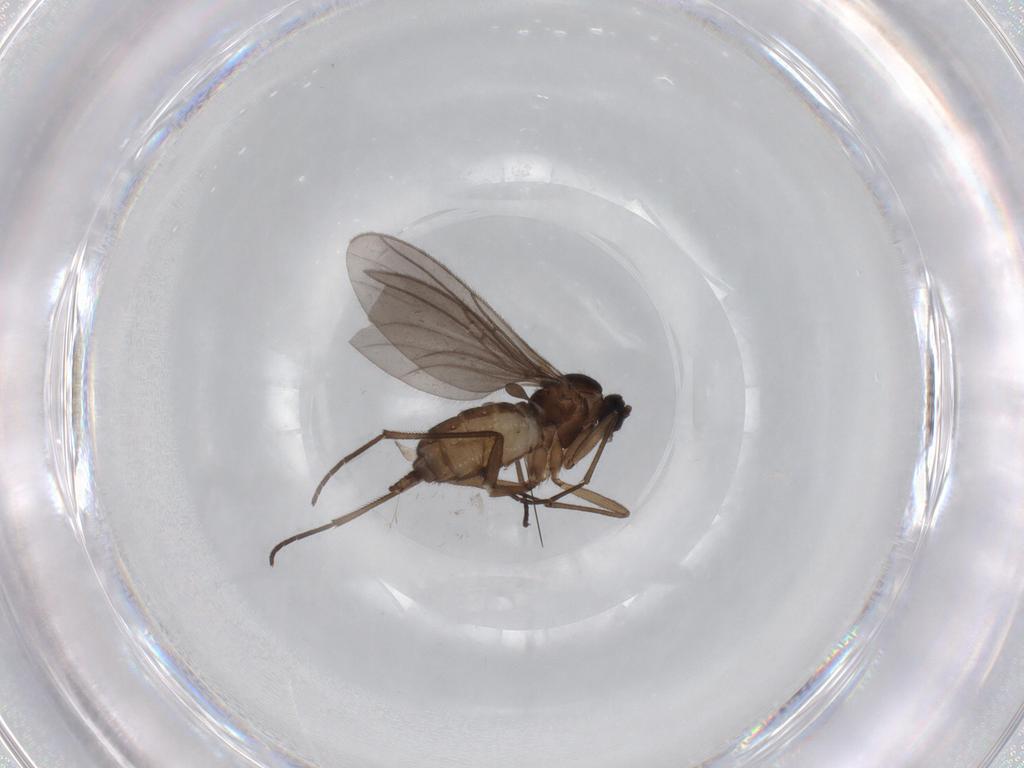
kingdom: Animalia
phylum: Arthropoda
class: Insecta
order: Diptera
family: Sciaridae
